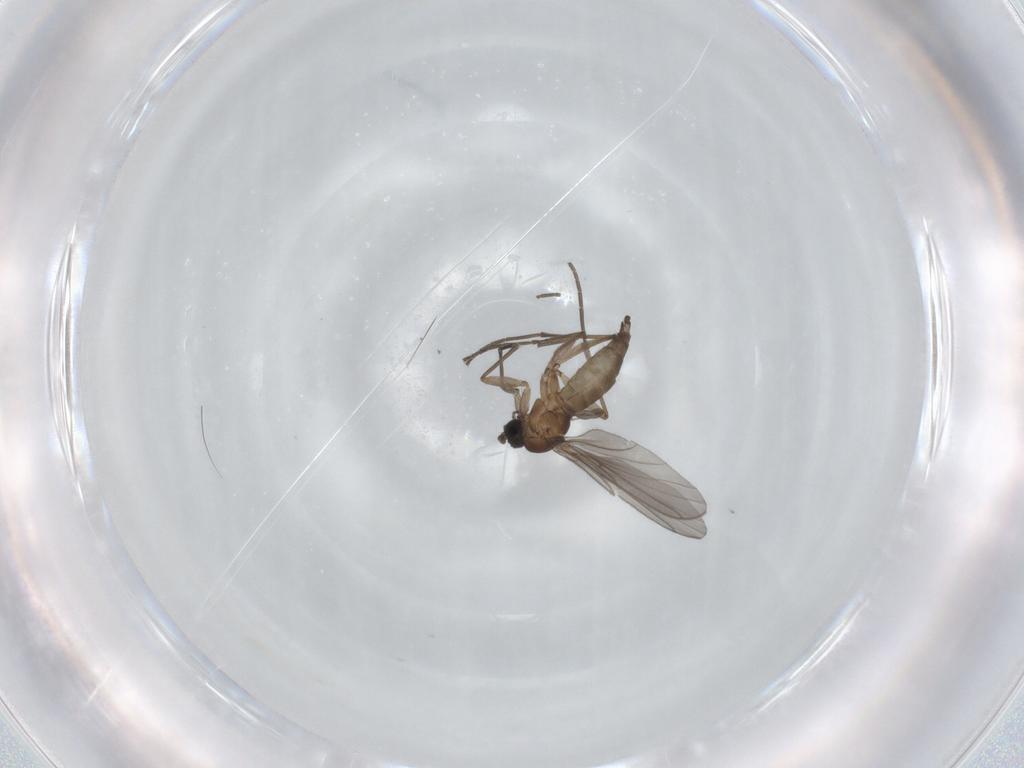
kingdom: Animalia
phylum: Arthropoda
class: Insecta
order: Diptera
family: Sciaridae
